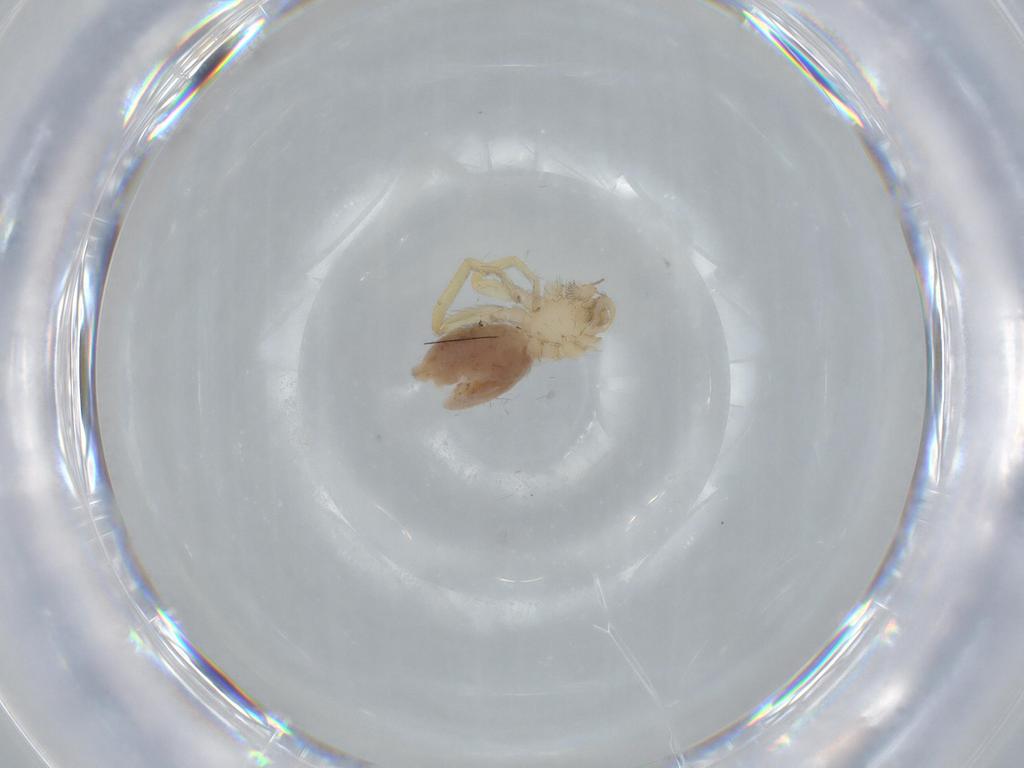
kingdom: Animalia
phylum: Arthropoda
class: Arachnida
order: Araneae
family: Oonopidae
